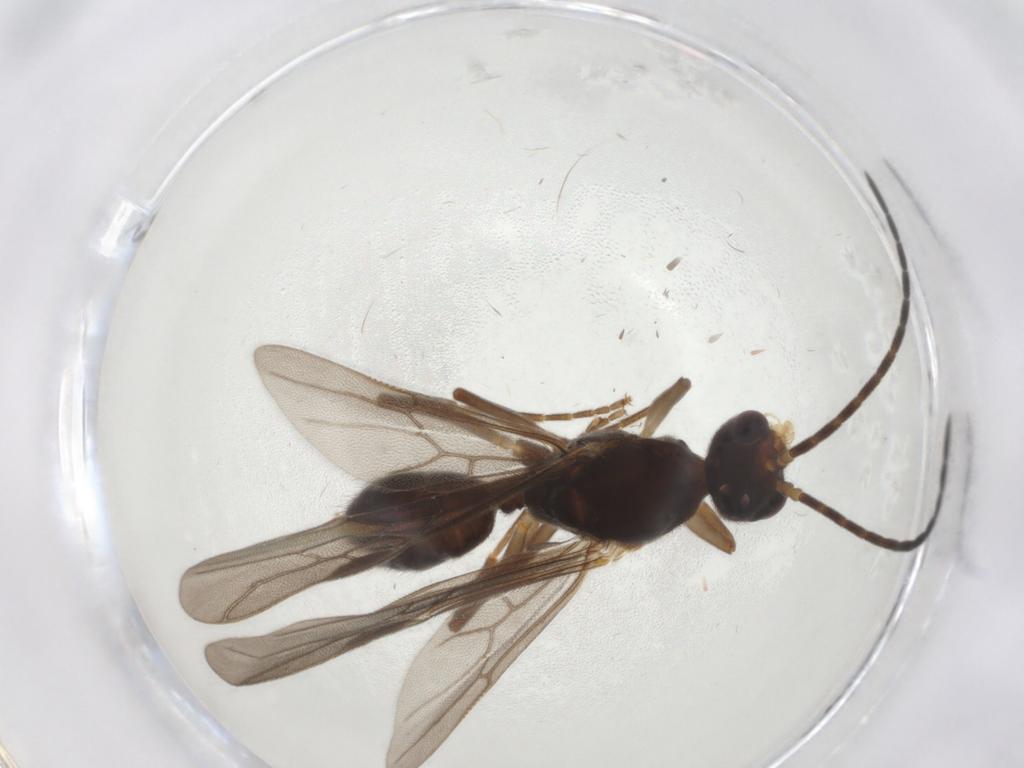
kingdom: Animalia
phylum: Arthropoda
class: Insecta
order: Hymenoptera
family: Formicidae
